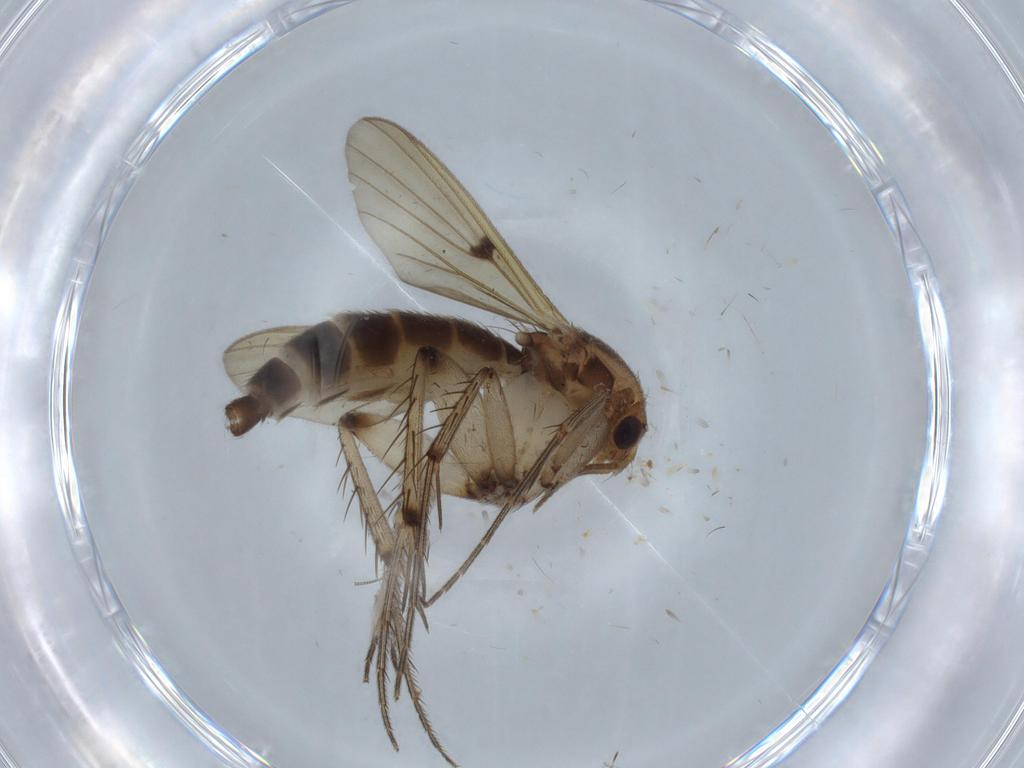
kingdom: Animalia
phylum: Arthropoda
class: Insecta
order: Diptera
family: Mycetophilidae
